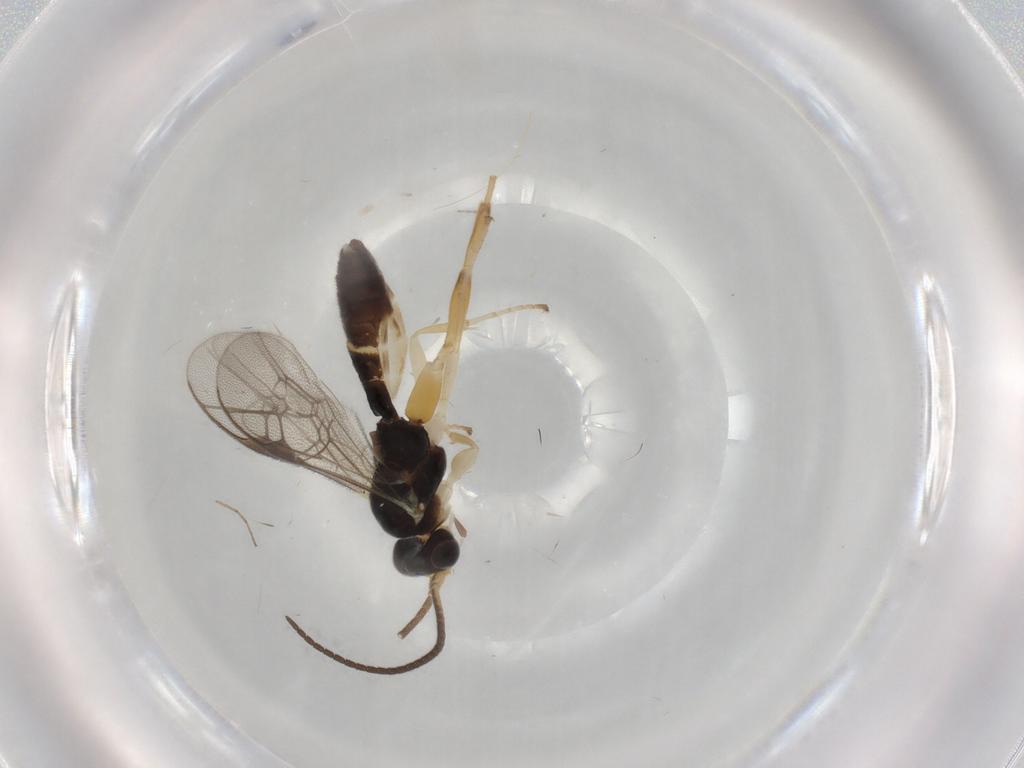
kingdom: Animalia
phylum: Arthropoda
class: Insecta
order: Hymenoptera
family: Ichneumonidae
